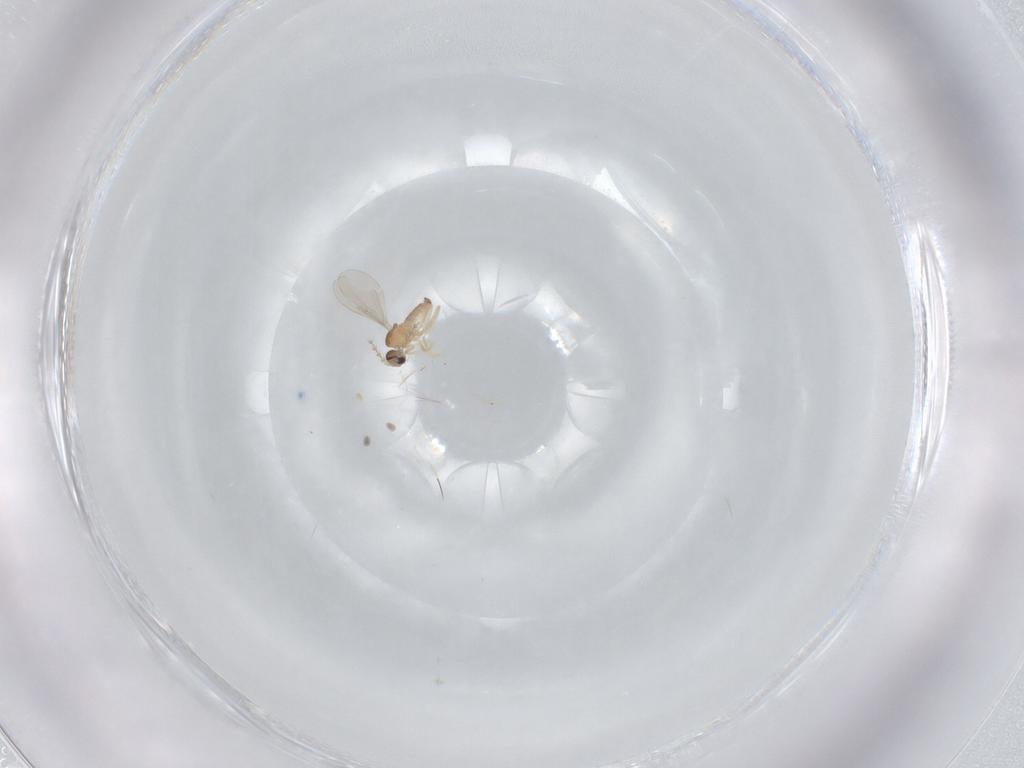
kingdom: Animalia
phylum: Arthropoda
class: Insecta
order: Diptera
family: Cecidomyiidae
